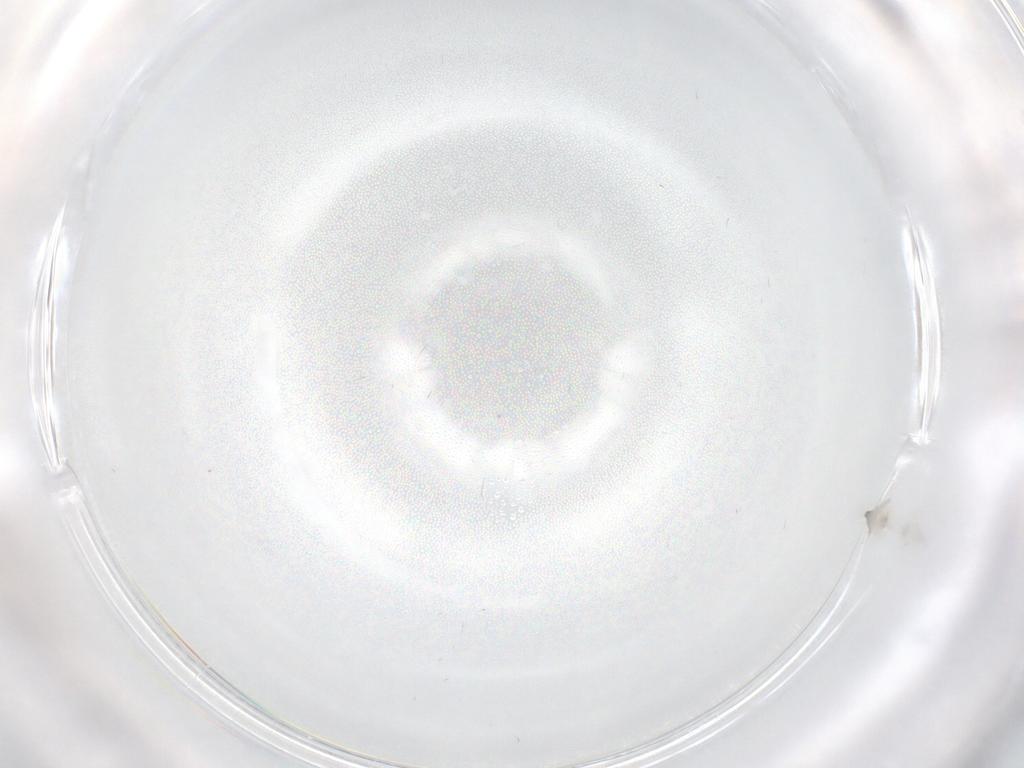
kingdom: Animalia
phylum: Arthropoda
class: Insecta
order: Diptera
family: Cecidomyiidae
